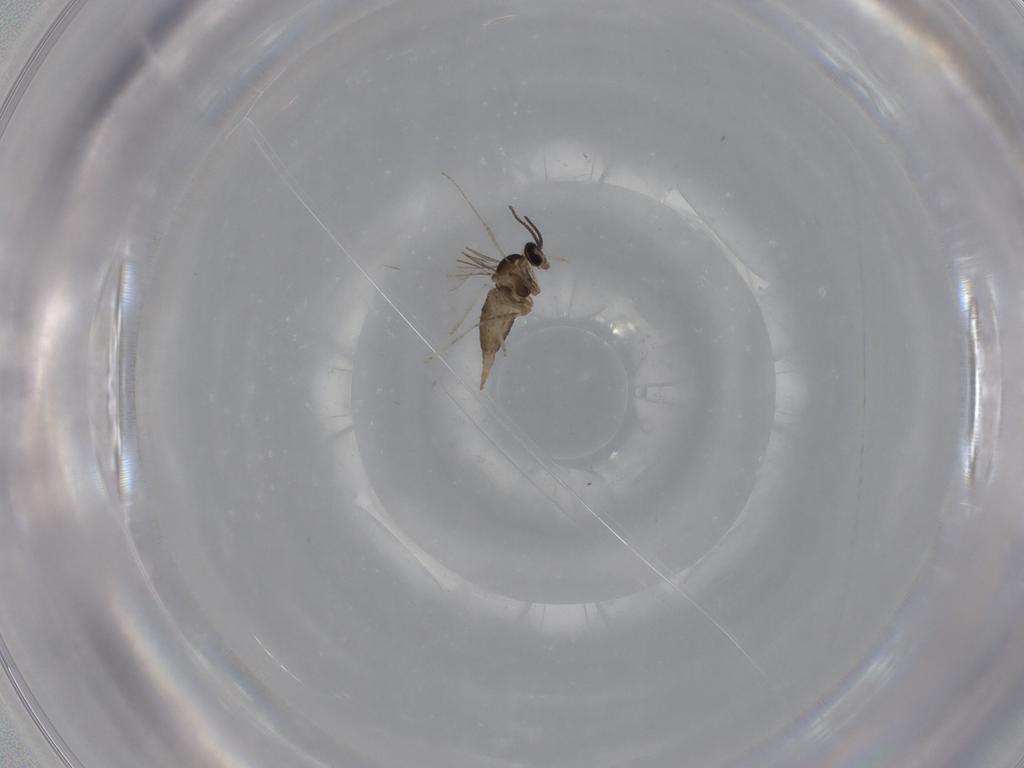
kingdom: Animalia
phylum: Arthropoda
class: Insecta
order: Diptera
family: Cecidomyiidae
